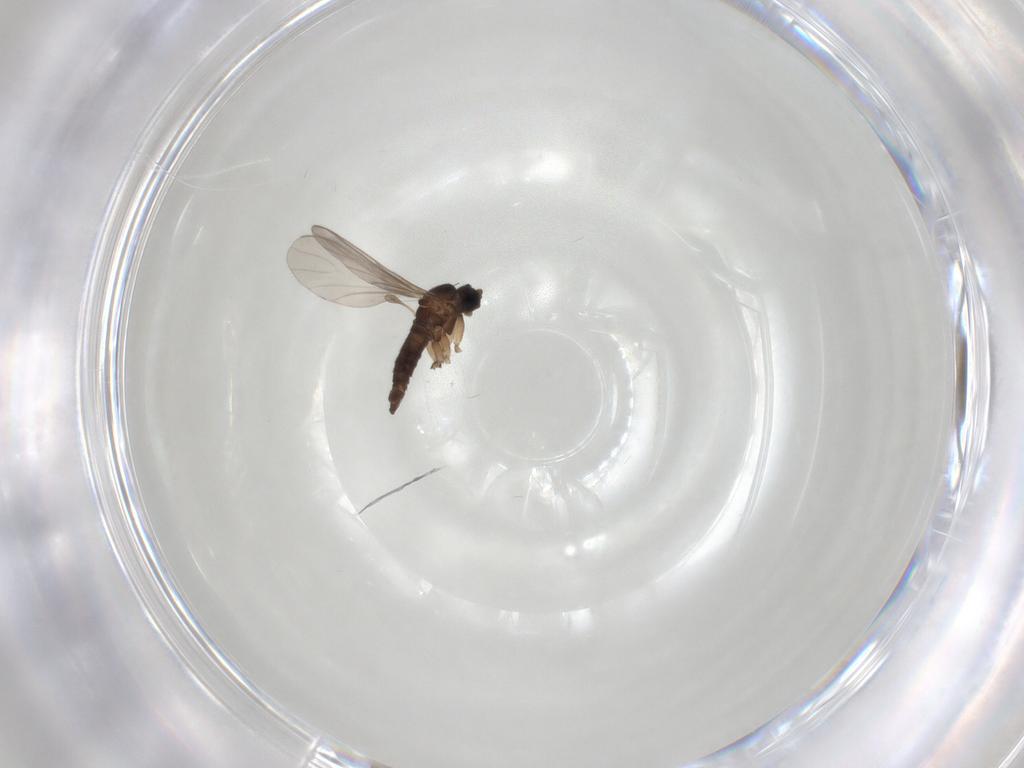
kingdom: Animalia
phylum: Arthropoda
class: Insecta
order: Diptera
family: Sciaridae
